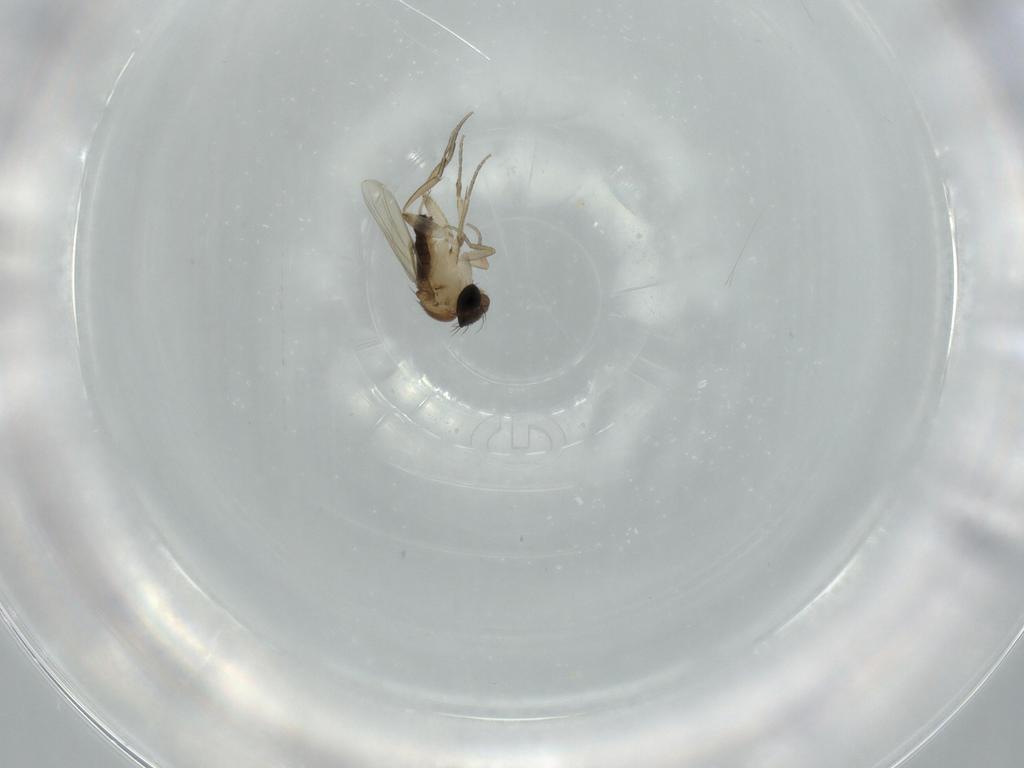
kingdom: Animalia
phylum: Arthropoda
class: Insecta
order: Diptera
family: Phoridae
